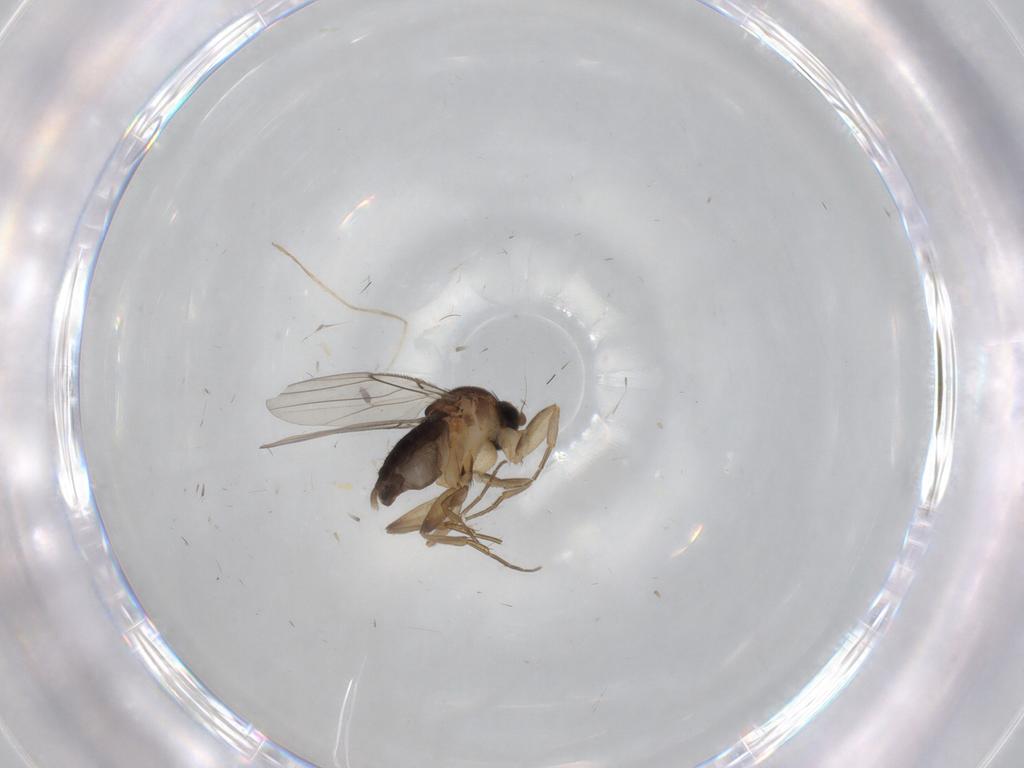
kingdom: Animalia
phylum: Arthropoda
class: Insecta
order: Diptera
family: Phoridae
